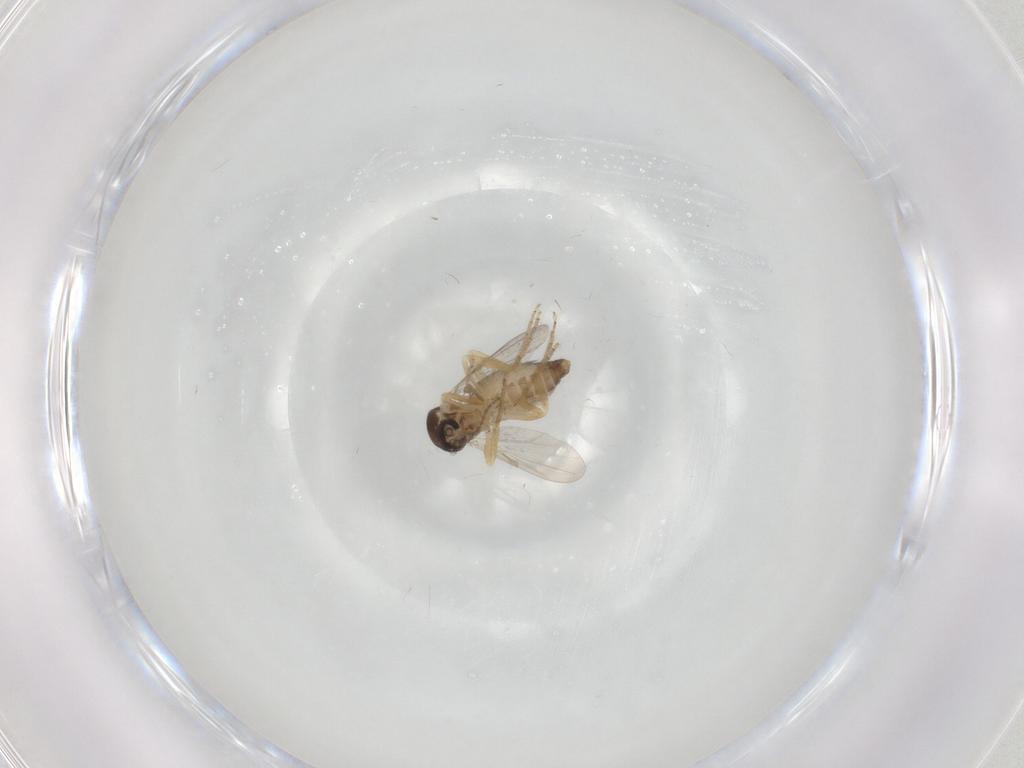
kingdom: Animalia
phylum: Arthropoda
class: Insecta
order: Diptera
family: Ceratopogonidae
